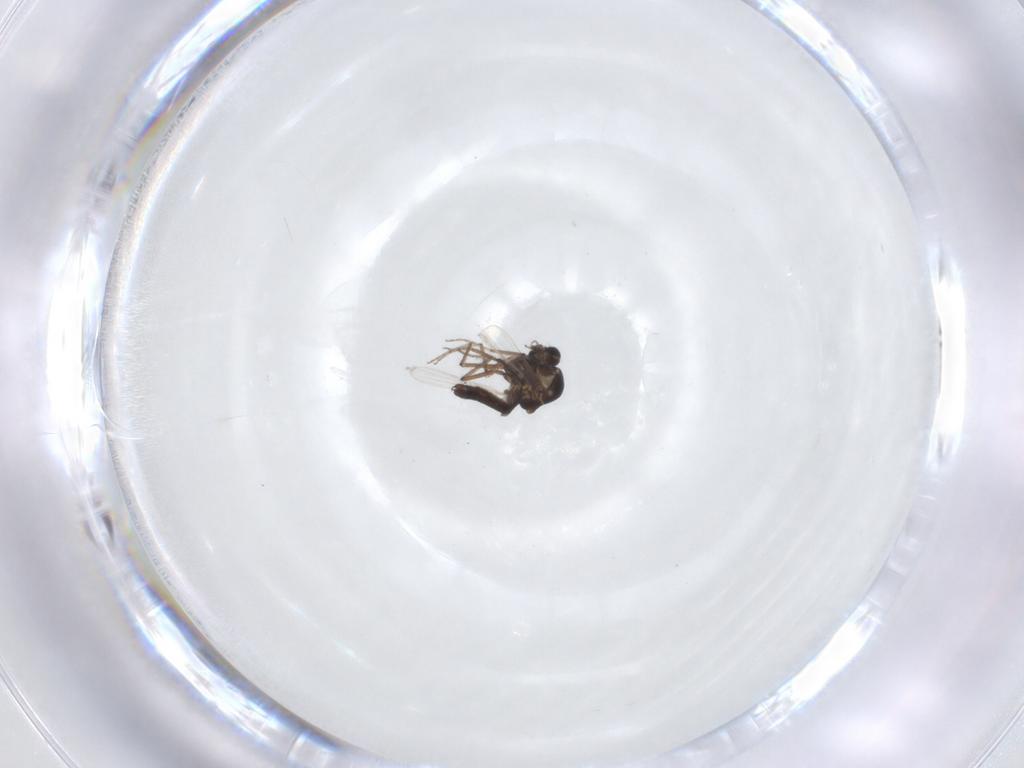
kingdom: Animalia
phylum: Arthropoda
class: Insecta
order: Diptera
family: Ceratopogonidae
